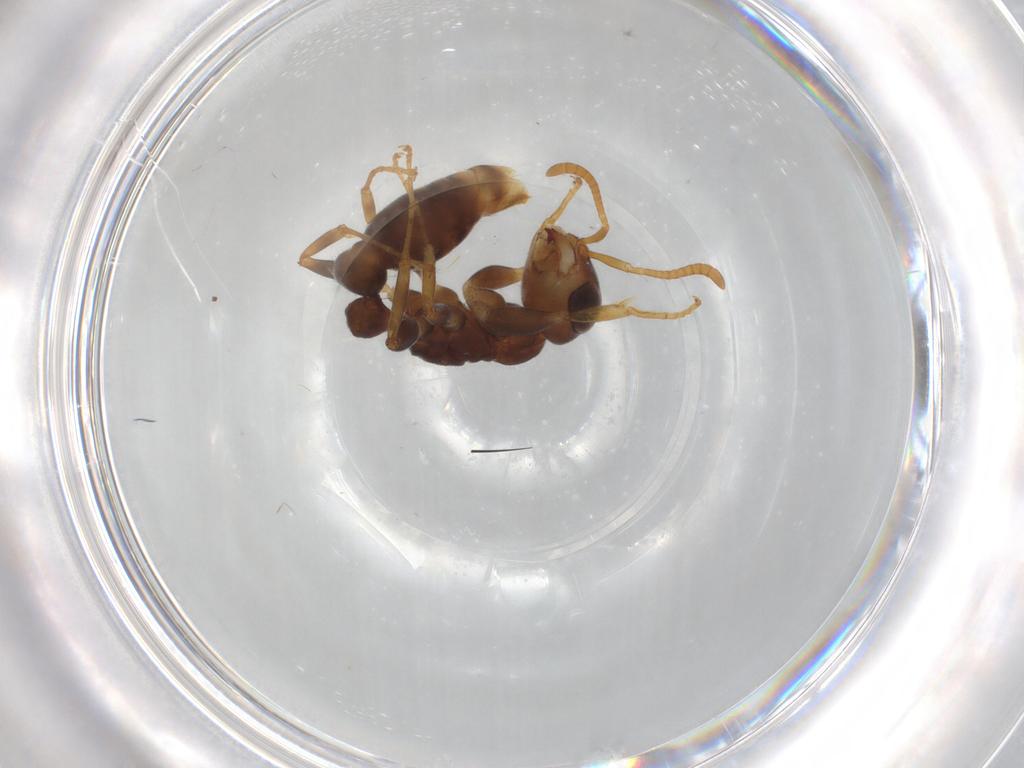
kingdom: Animalia
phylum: Arthropoda
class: Insecta
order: Hymenoptera
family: Formicidae
